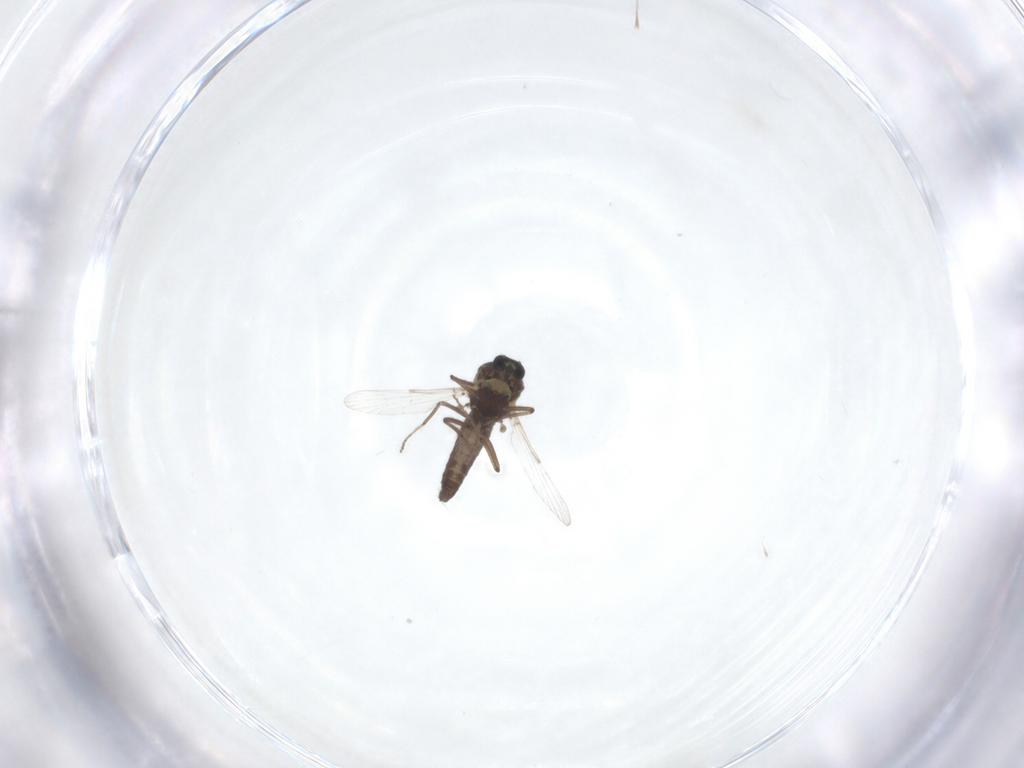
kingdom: Animalia
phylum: Arthropoda
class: Insecta
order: Diptera
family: Ceratopogonidae
